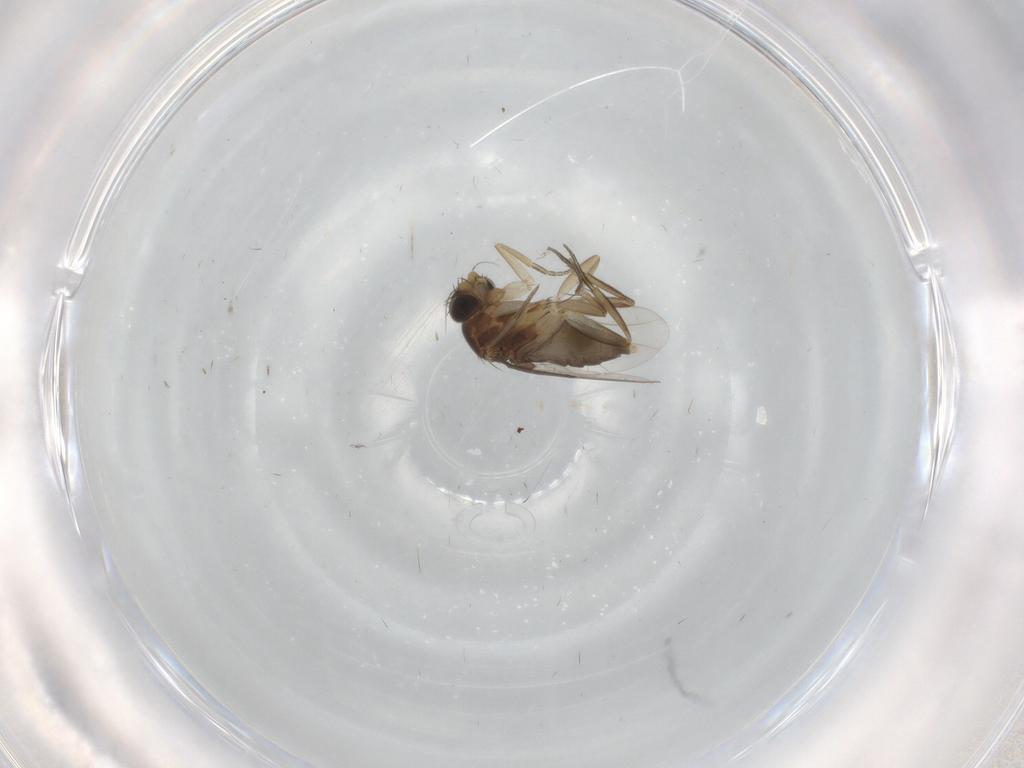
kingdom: Animalia
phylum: Arthropoda
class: Insecta
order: Diptera
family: Phoridae
